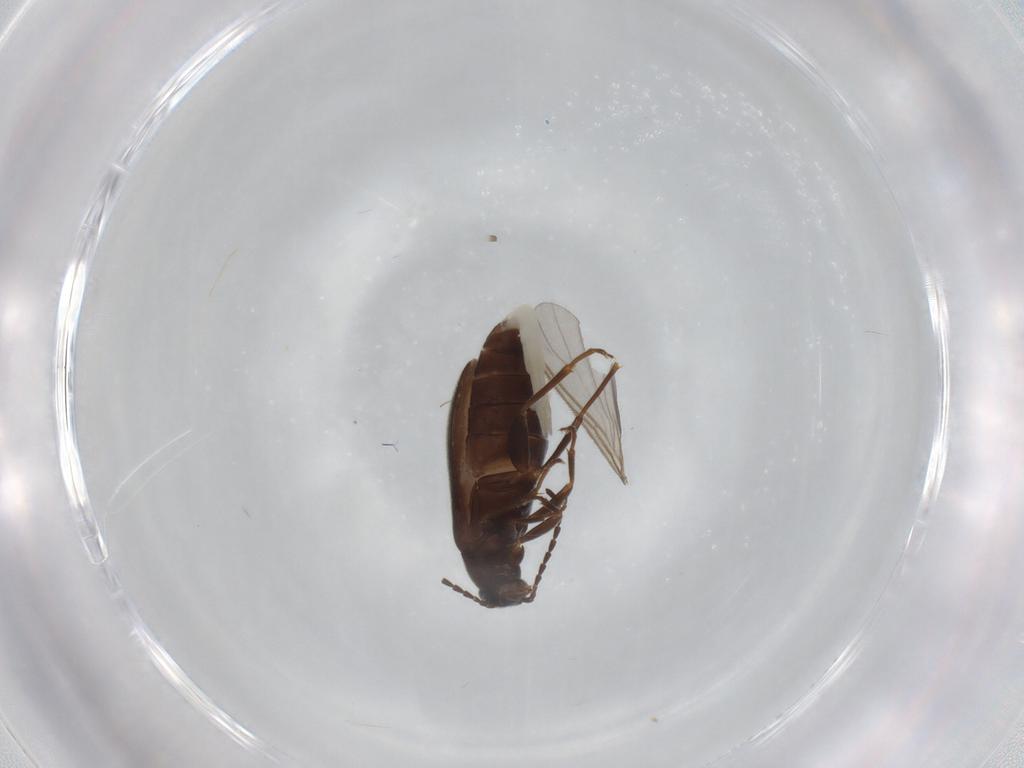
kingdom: Animalia
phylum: Arthropoda
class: Insecta
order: Coleoptera
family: Scraptiidae
